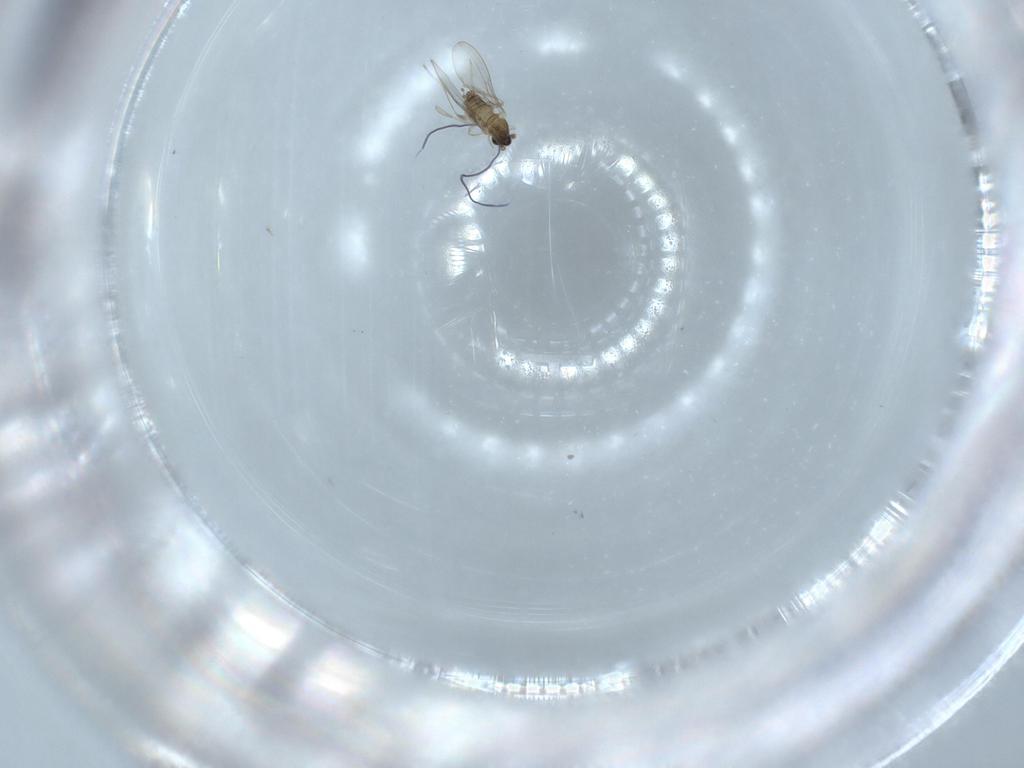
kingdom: Animalia
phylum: Arthropoda
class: Insecta
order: Diptera
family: Cecidomyiidae
